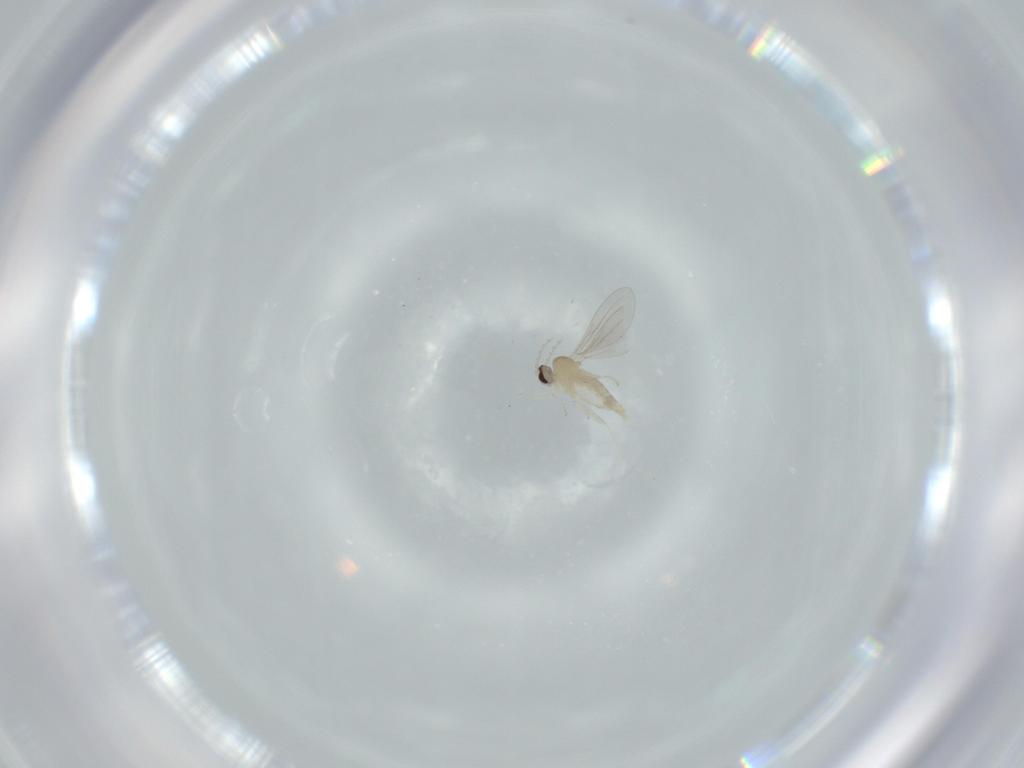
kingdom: Animalia
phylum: Arthropoda
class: Insecta
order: Diptera
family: Cecidomyiidae
